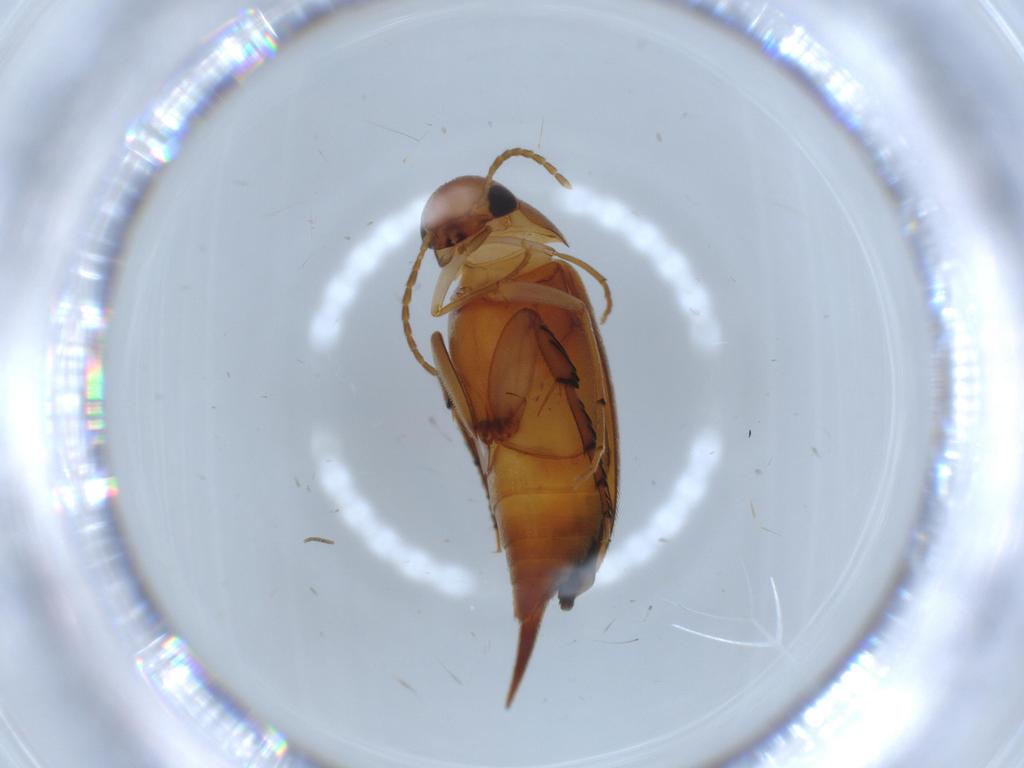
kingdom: Animalia
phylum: Arthropoda
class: Insecta
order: Coleoptera
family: Mordellidae
